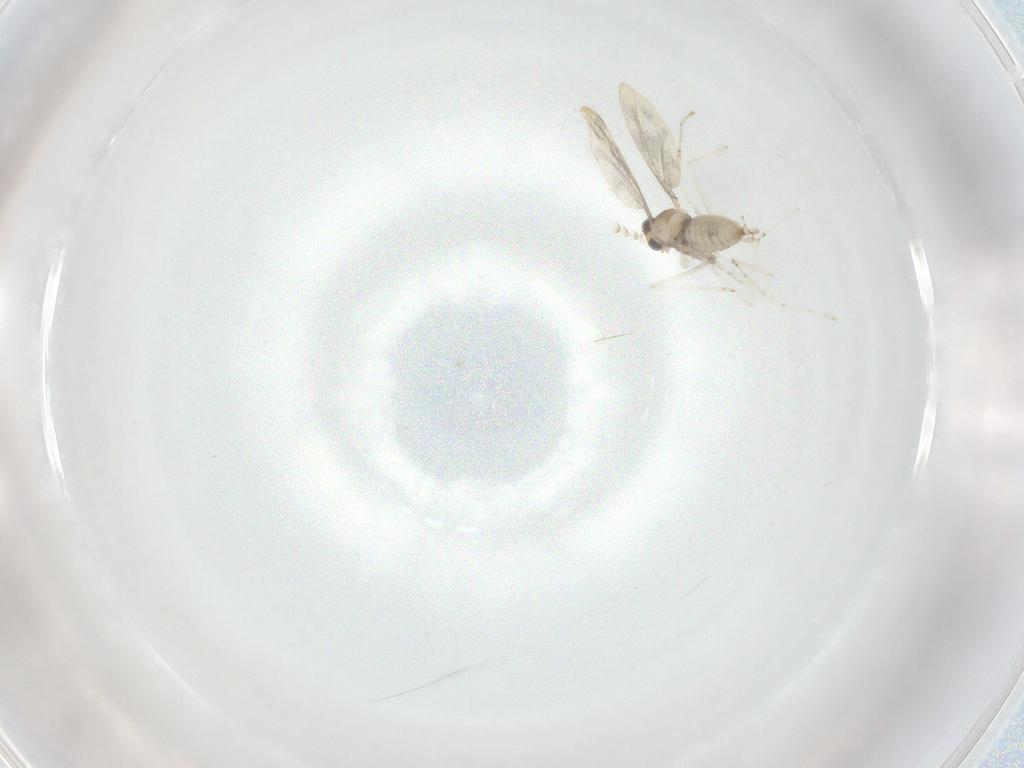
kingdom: Animalia
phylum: Arthropoda
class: Insecta
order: Diptera
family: Cecidomyiidae
